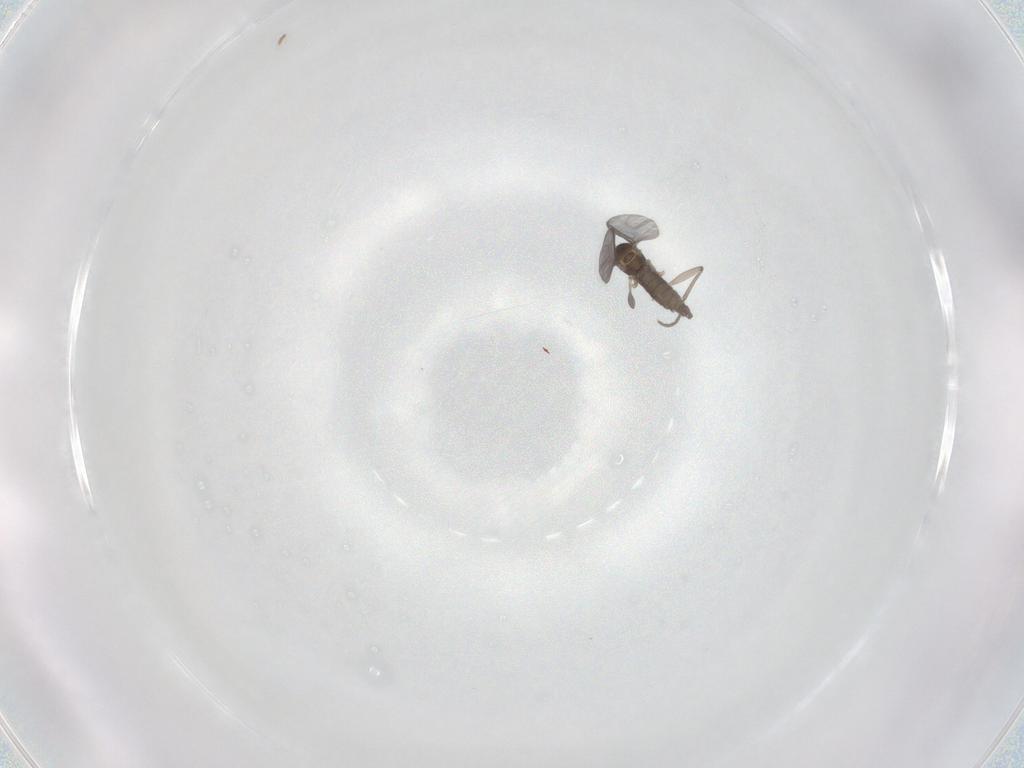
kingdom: Animalia
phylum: Arthropoda
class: Insecta
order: Diptera
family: Sciaridae
